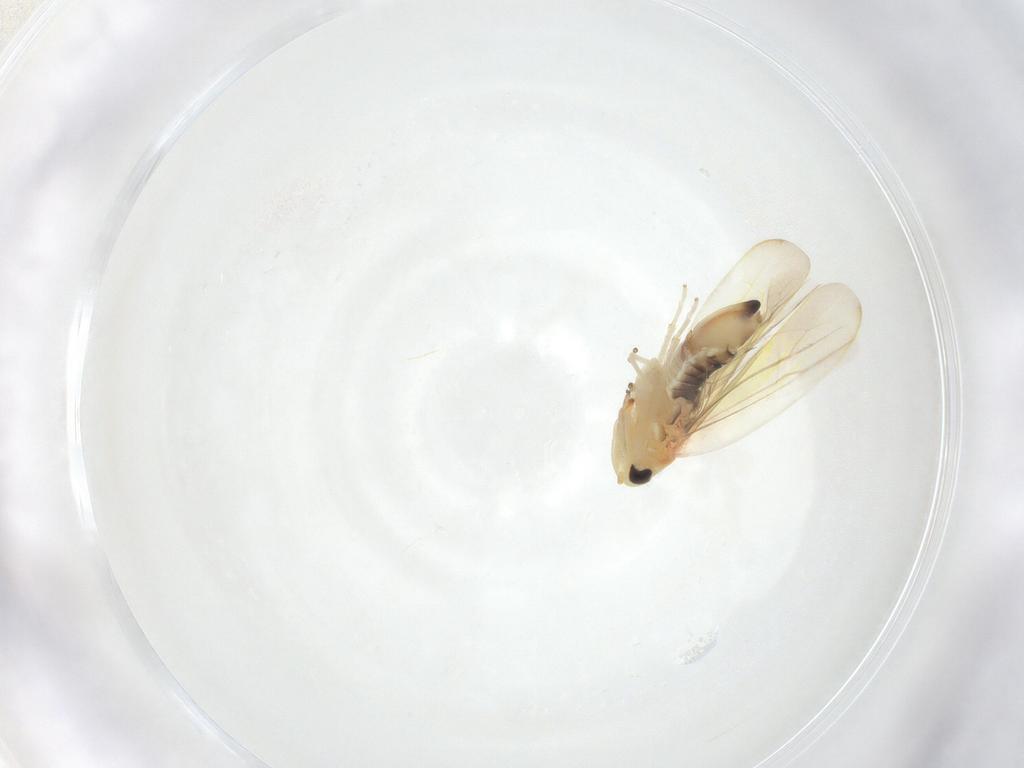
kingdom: Animalia
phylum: Arthropoda
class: Insecta
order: Hemiptera
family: Cicadellidae
